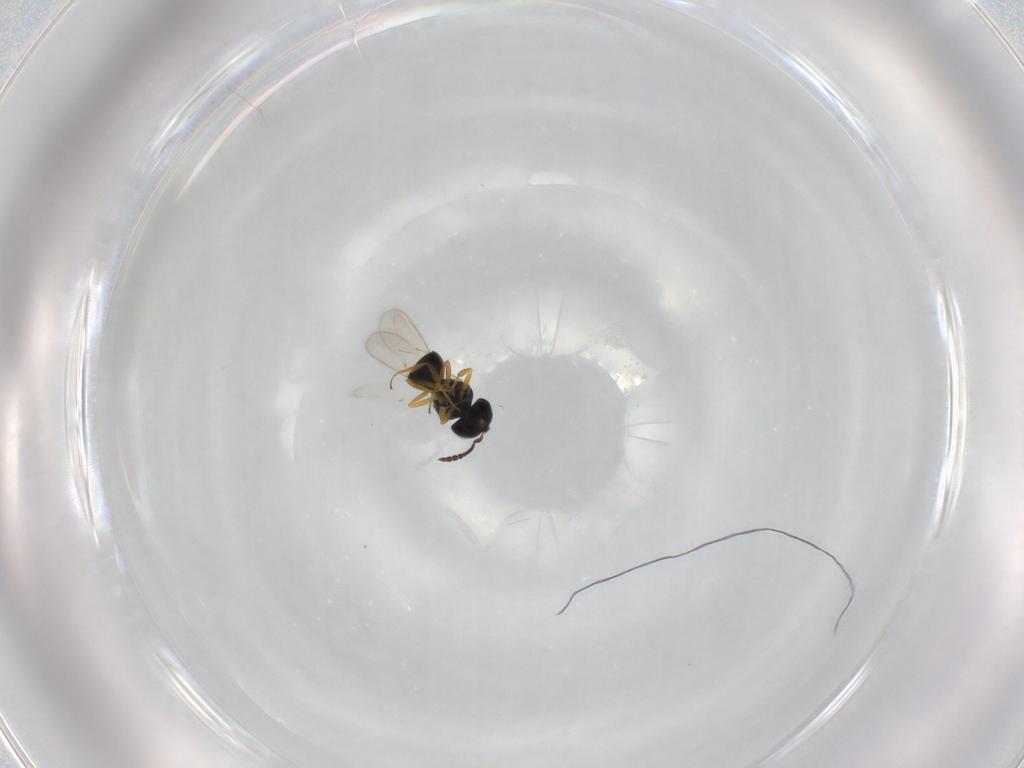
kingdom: Animalia
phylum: Arthropoda
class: Insecta
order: Hymenoptera
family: Scelionidae
